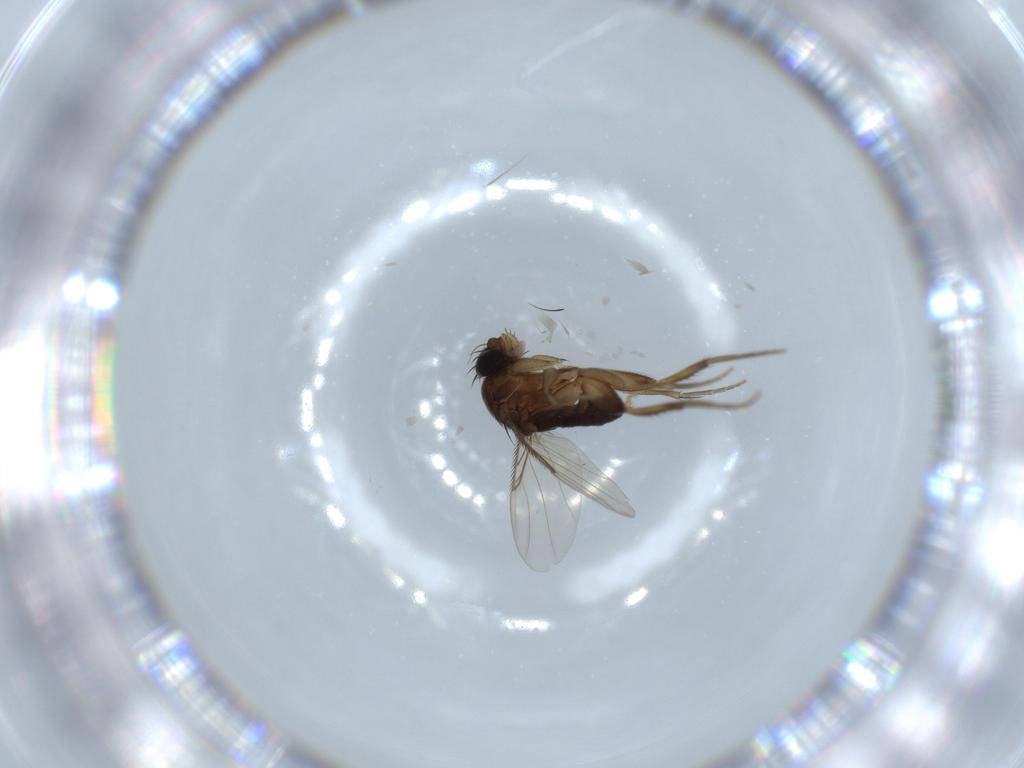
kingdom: Animalia
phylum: Arthropoda
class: Insecta
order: Diptera
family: Phoridae
